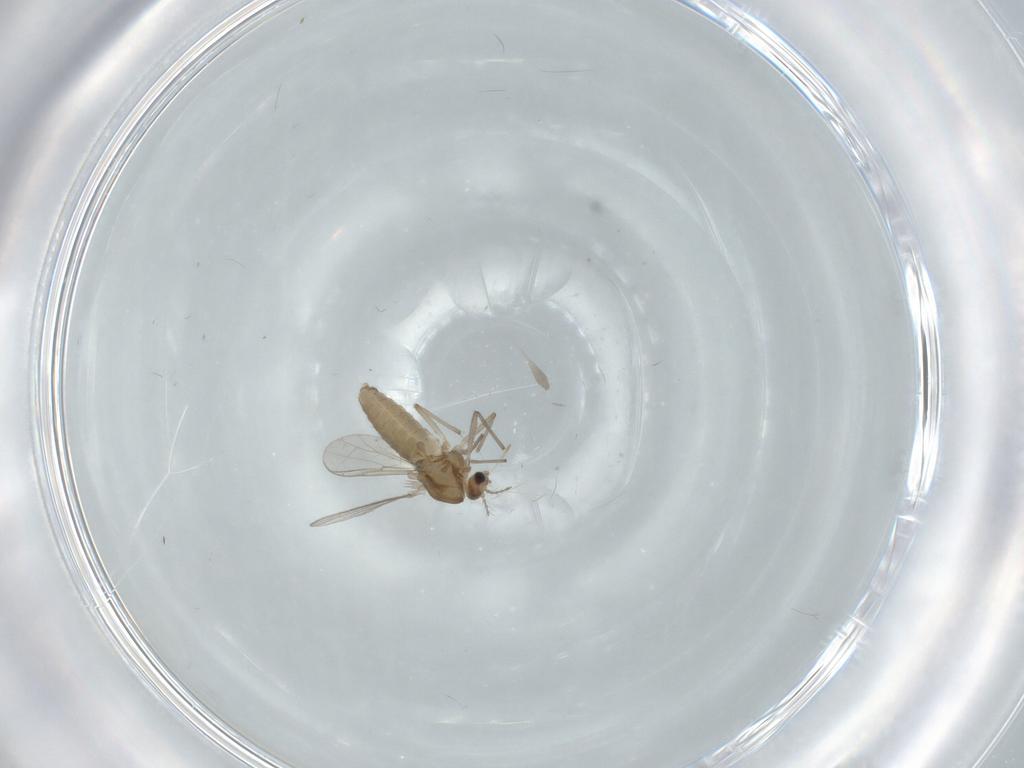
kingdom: Animalia
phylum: Arthropoda
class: Insecta
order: Diptera
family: Chironomidae
